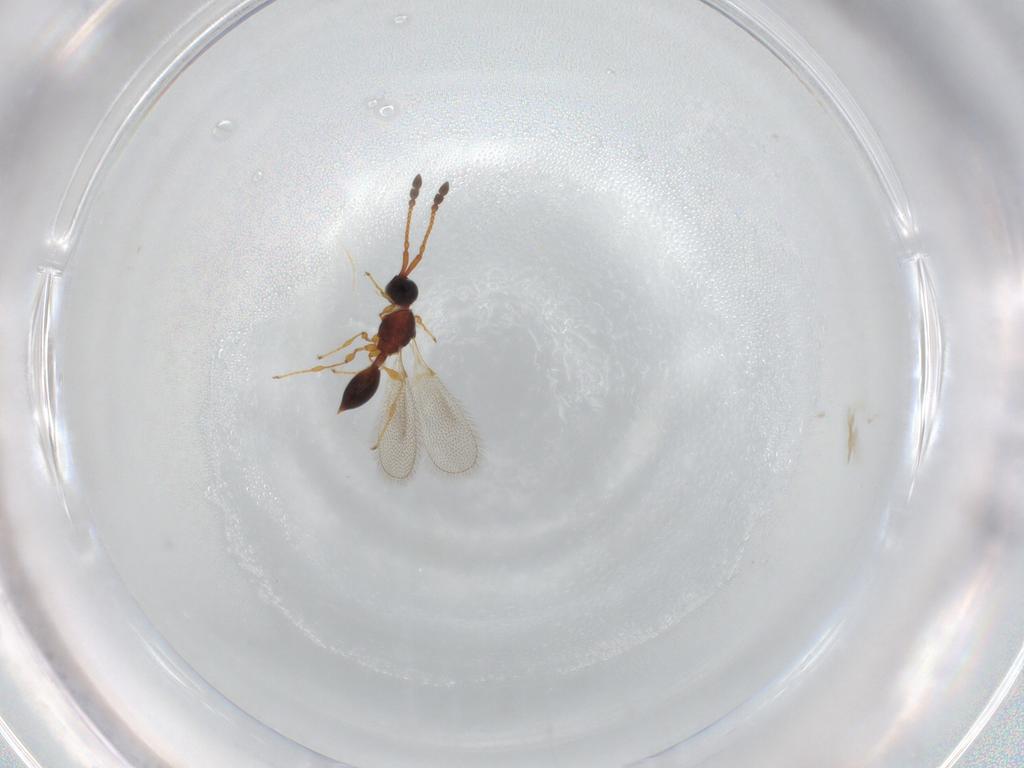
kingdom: Animalia
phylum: Arthropoda
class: Insecta
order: Hymenoptera
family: Diapriidae
